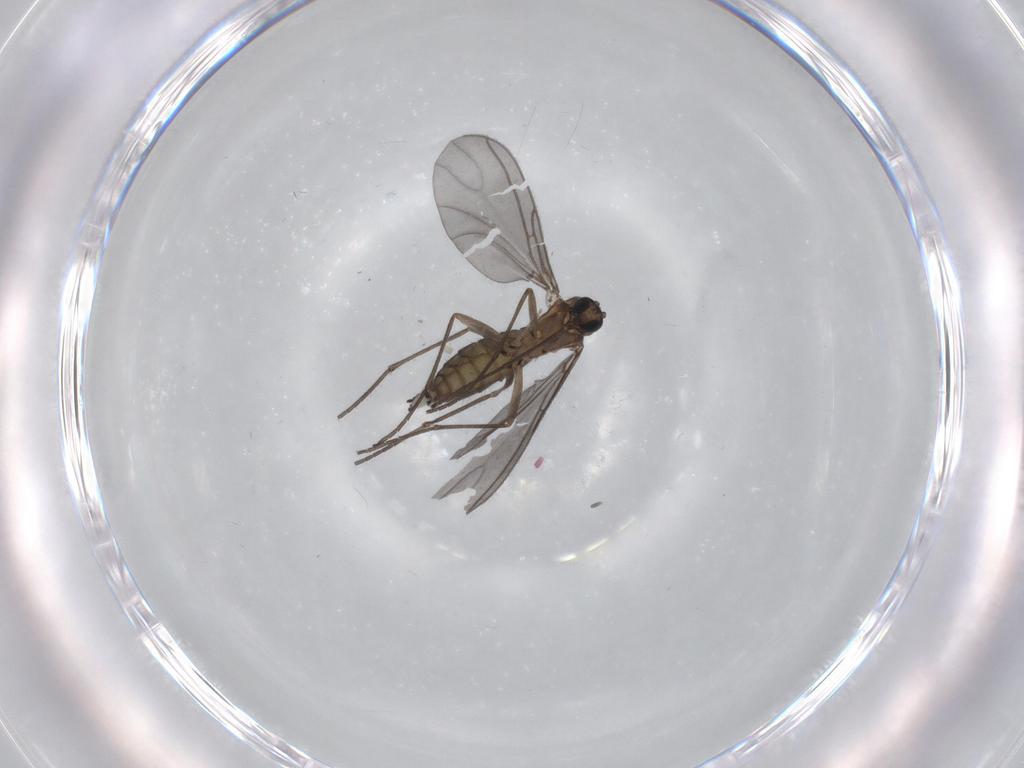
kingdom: Animalia
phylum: Arthropoda
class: Insecta
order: Diptera
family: Sciaridae
